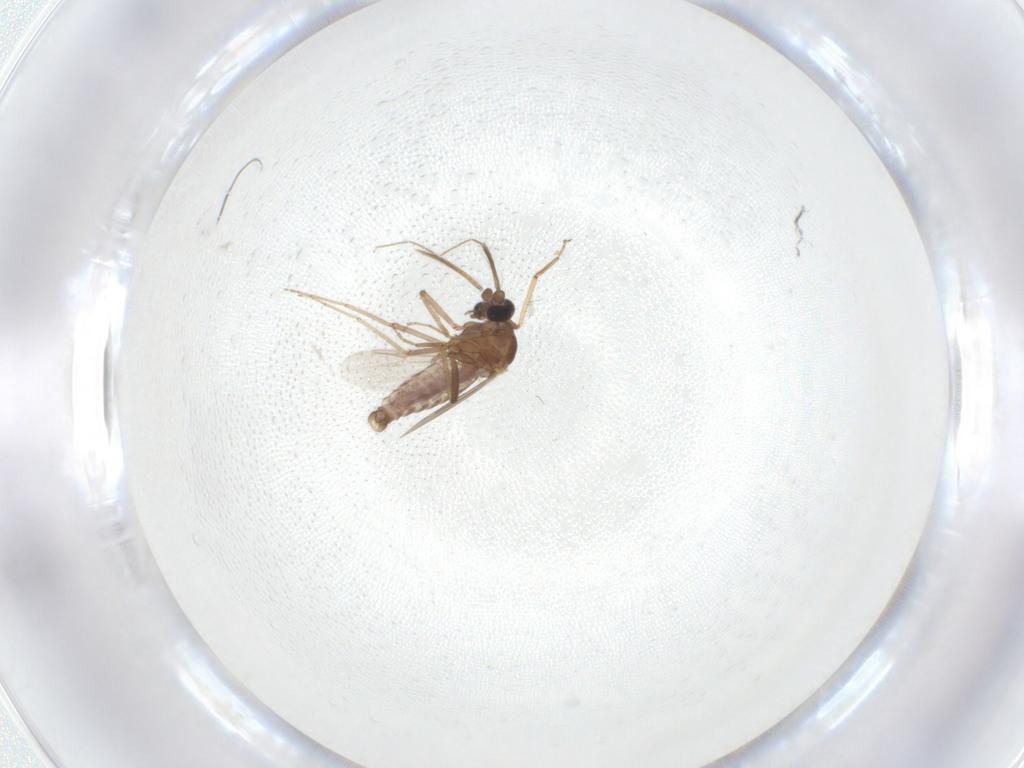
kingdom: Animalia
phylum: Arthropoda
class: Insecta
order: Diptera
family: Ceratopogonidae
